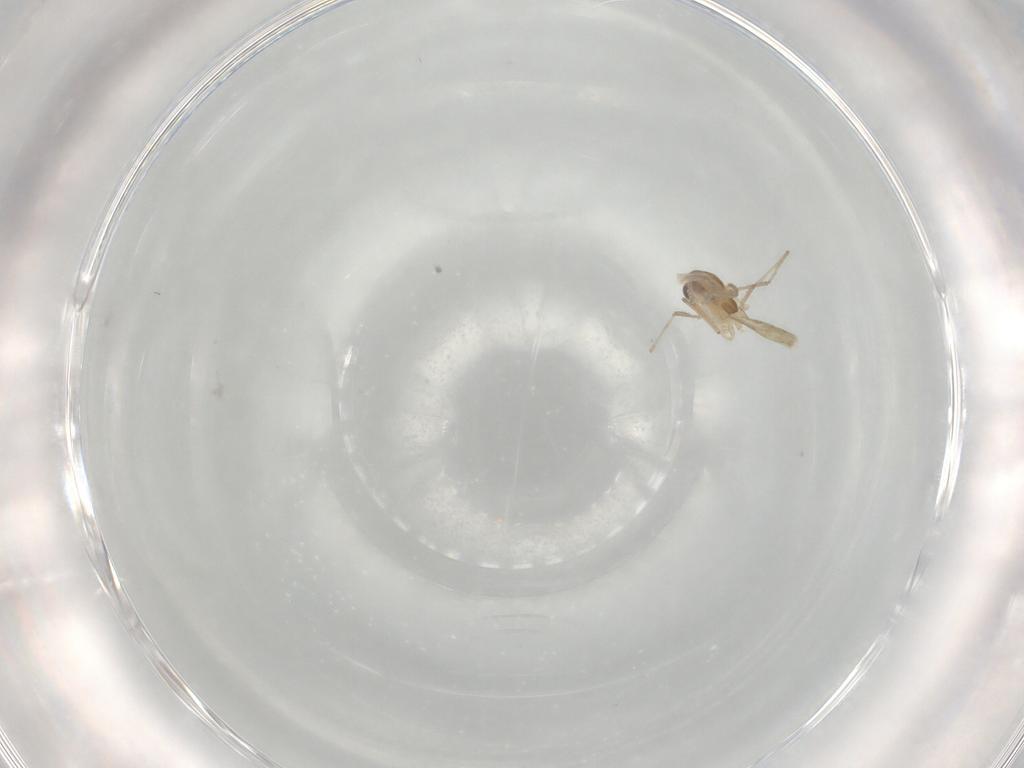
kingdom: Animalia
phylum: Arthropoda
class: Insecta
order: Diptera
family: Chironomidae
